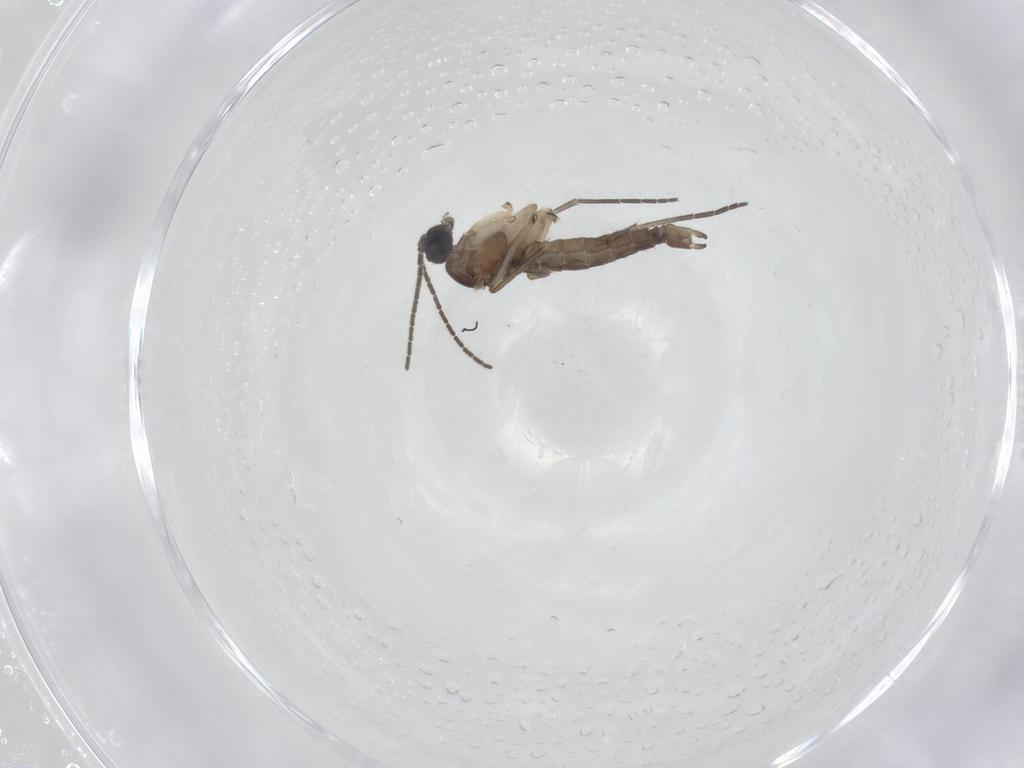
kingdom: Animalia
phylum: Arthropoda
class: Insecta
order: Diptera
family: Sciaridae
